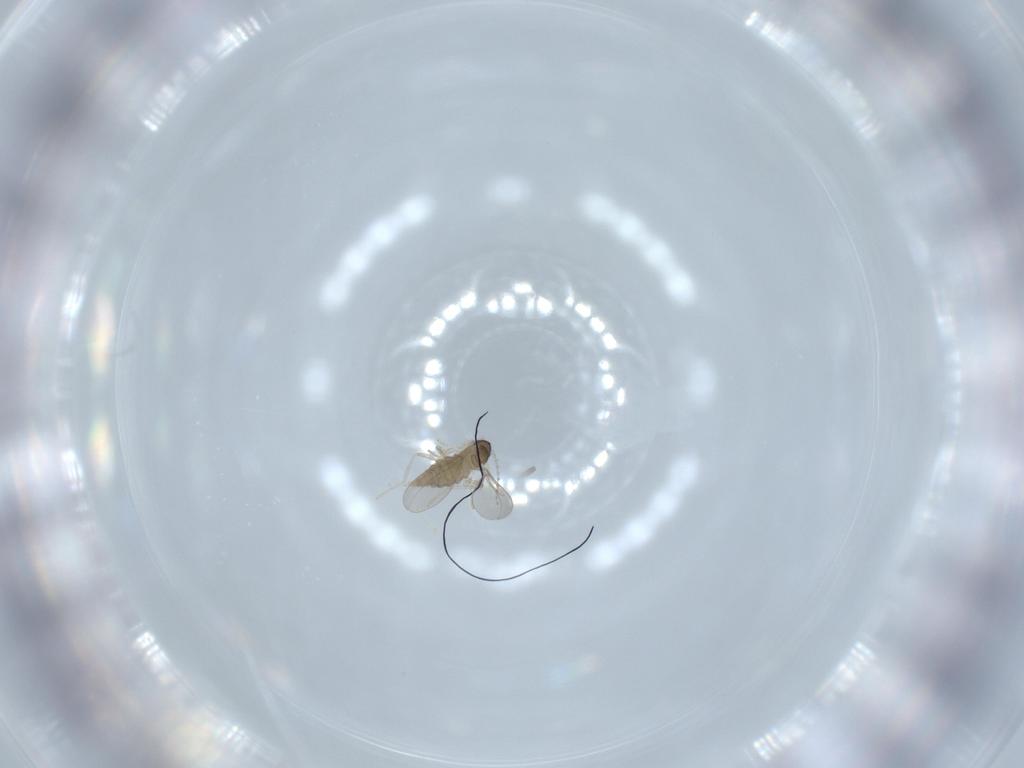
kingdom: Animalia
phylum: Arthropoda
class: Insecta
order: Diptera
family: Cecidomyiidae
